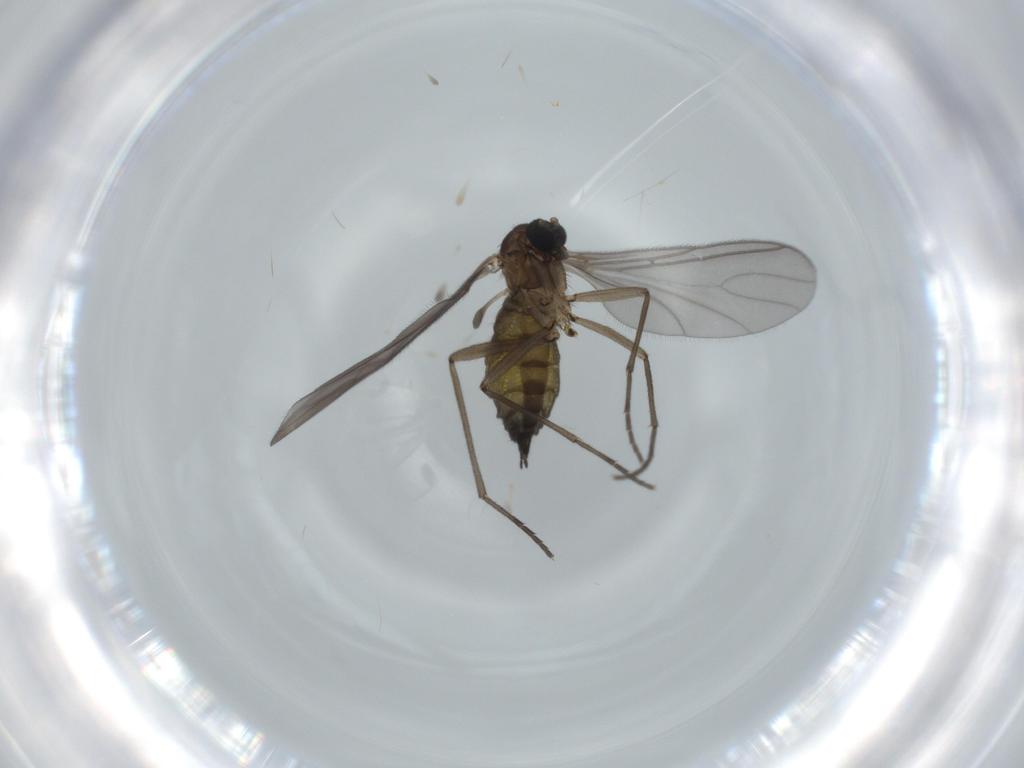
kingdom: Animalia
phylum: Arthropoda
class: Insecta
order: Diptera
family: Sciaridae
